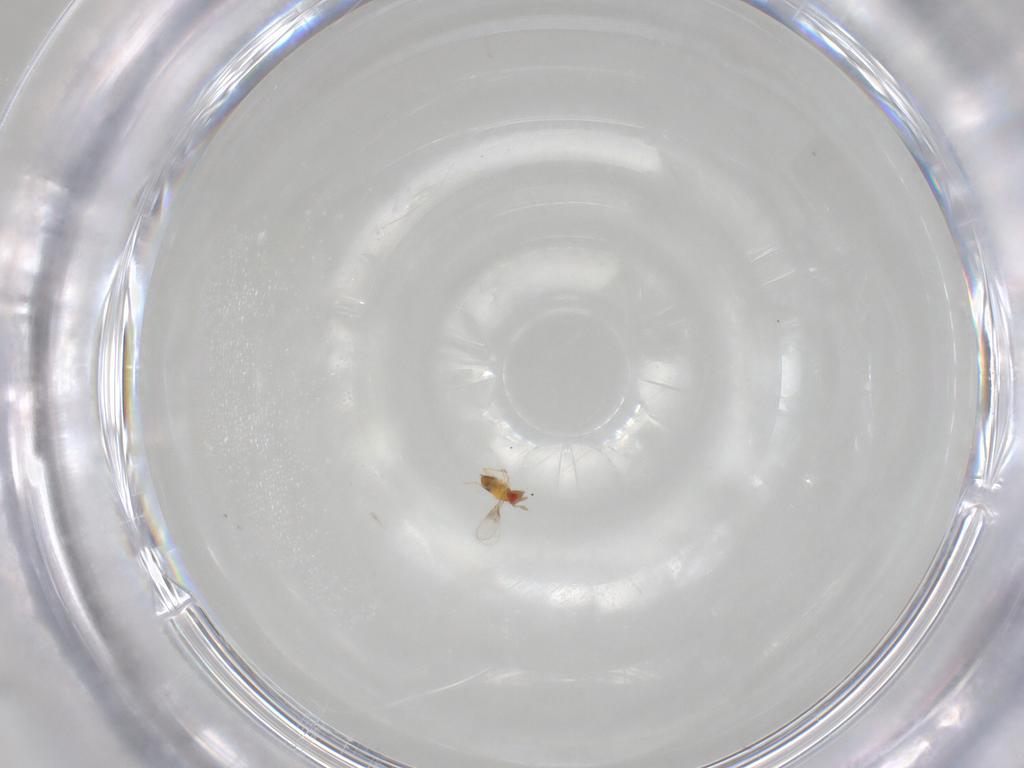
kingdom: Animalia
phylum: Arthropoda
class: Insecta
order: Hymenoptera
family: Trichogrammatidae
